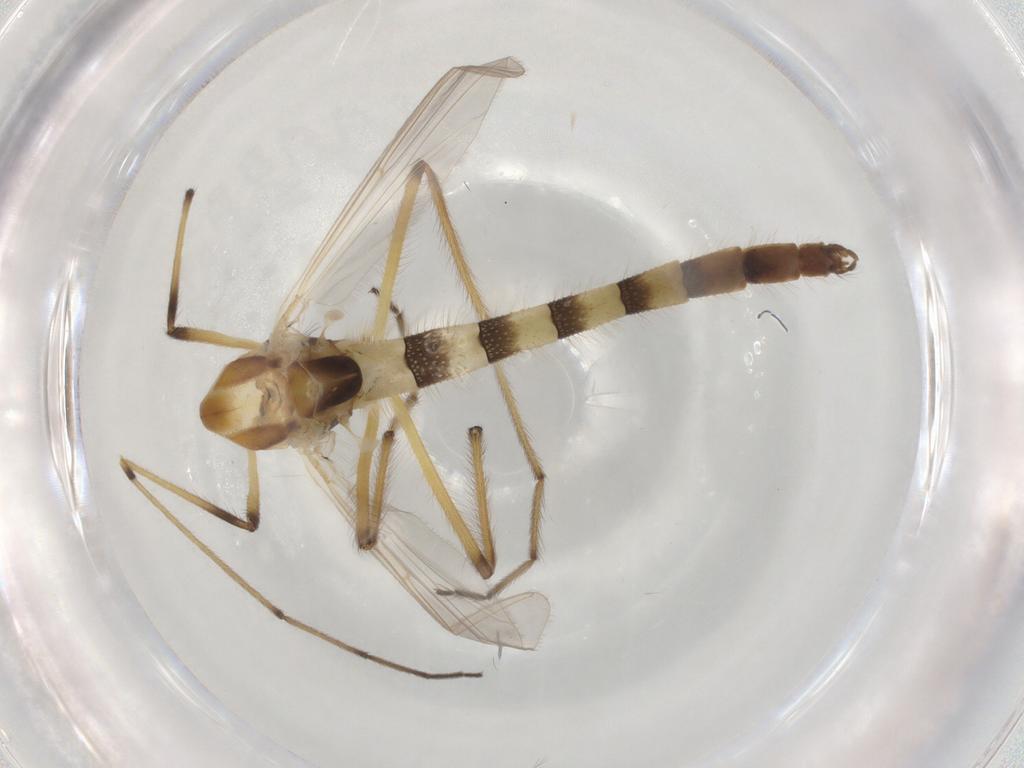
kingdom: Animalia
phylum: Arthropoda
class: Insecta
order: Diptera
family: Chironomidae
